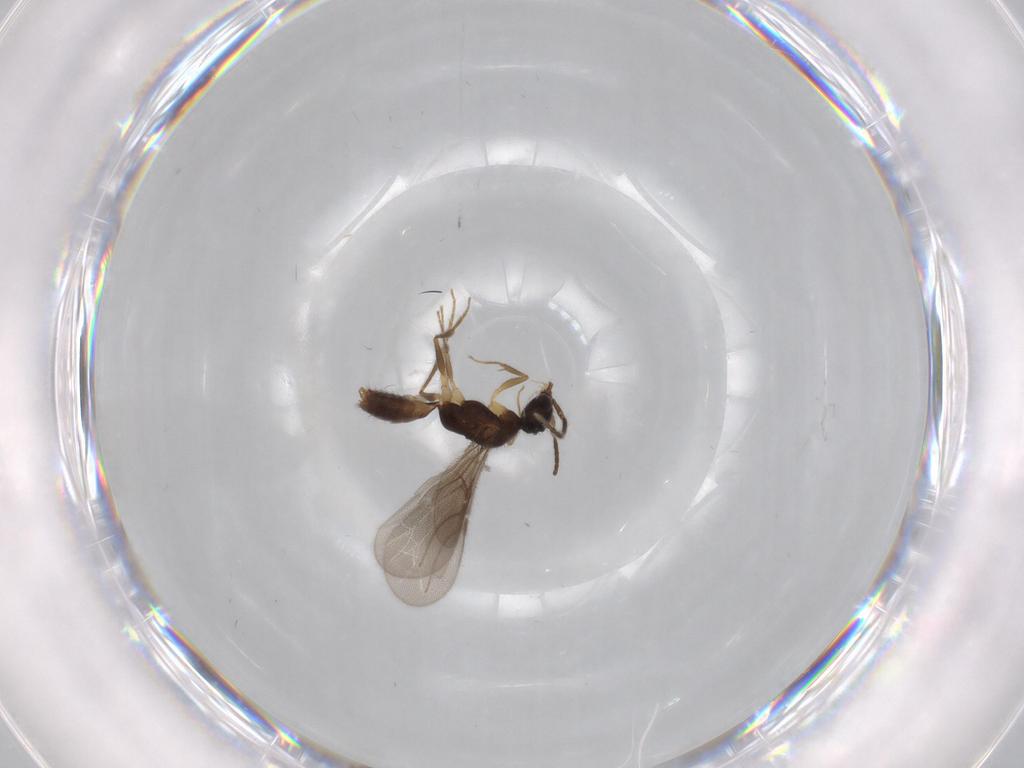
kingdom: Animalia
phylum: Arthropoda
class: Insecta
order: Hymenoptera
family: Bethylidae
